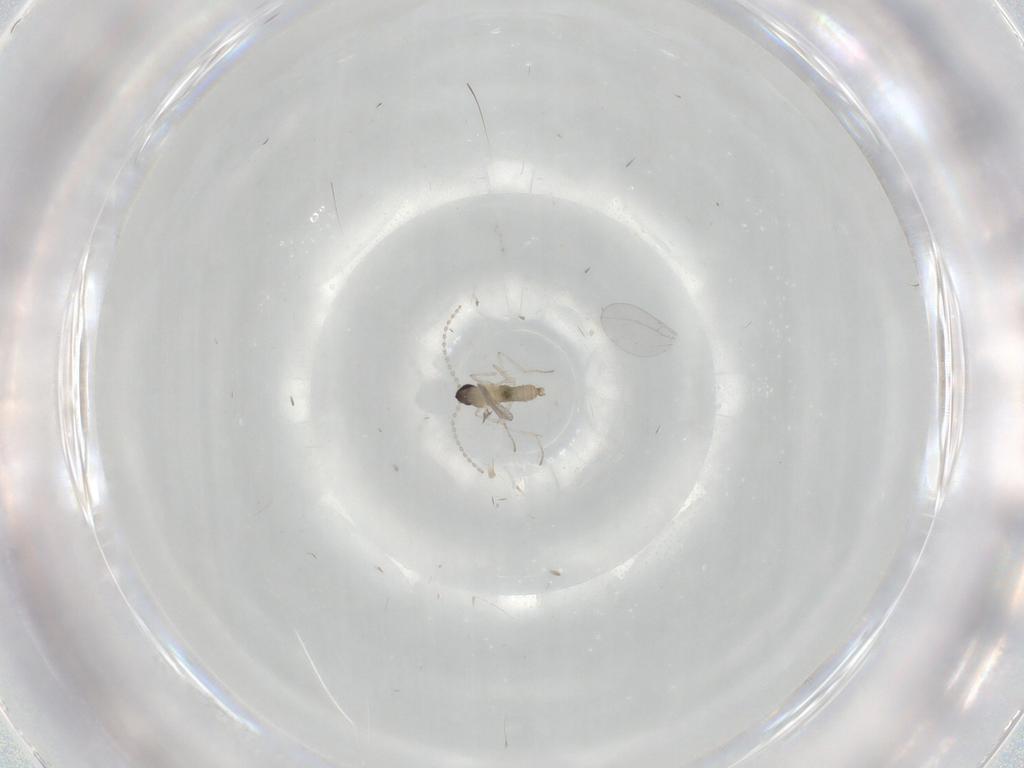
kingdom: Animalia
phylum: Arthropoda
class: Insecta
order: Diptera
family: Cecidomyiidae
